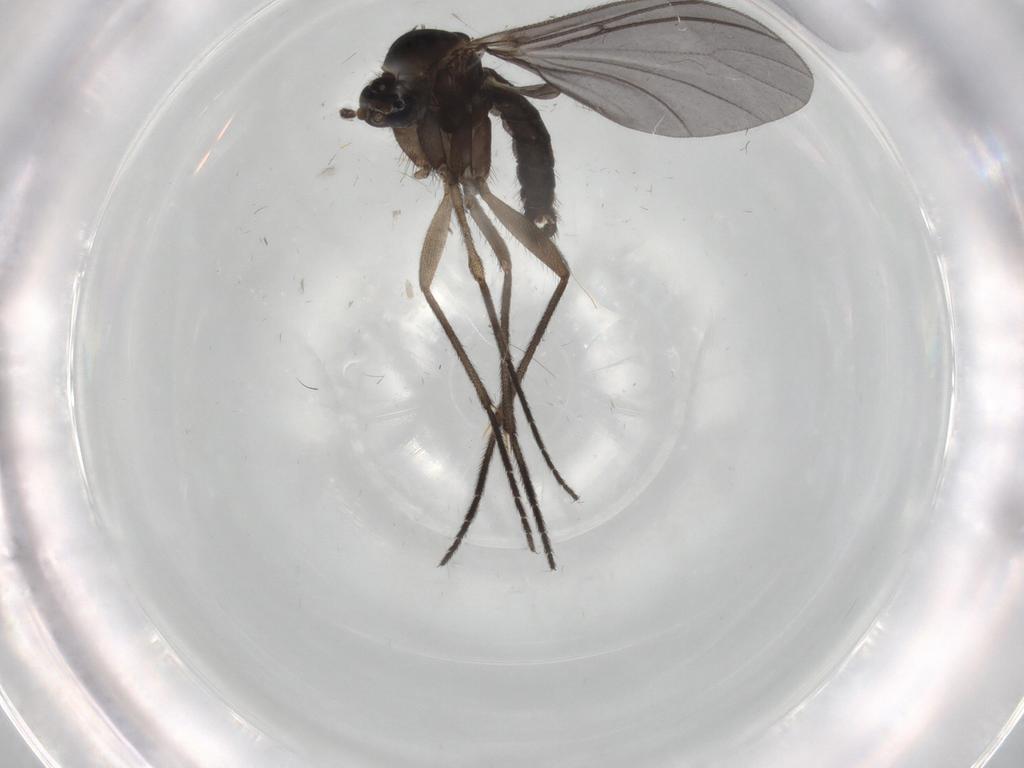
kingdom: Animalia
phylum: Arthropoda
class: Insecta
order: Diptera
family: Sciaridae
